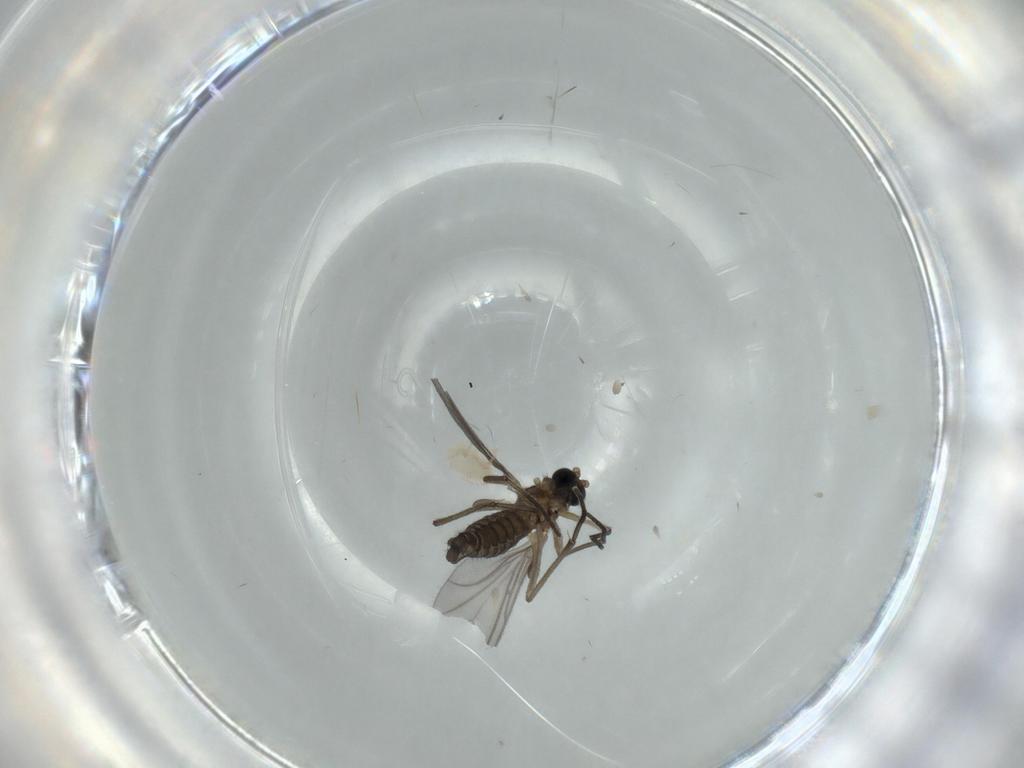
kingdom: Animalia
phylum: Arthropoda
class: Insecta
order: Diptera
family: Sciaridae
